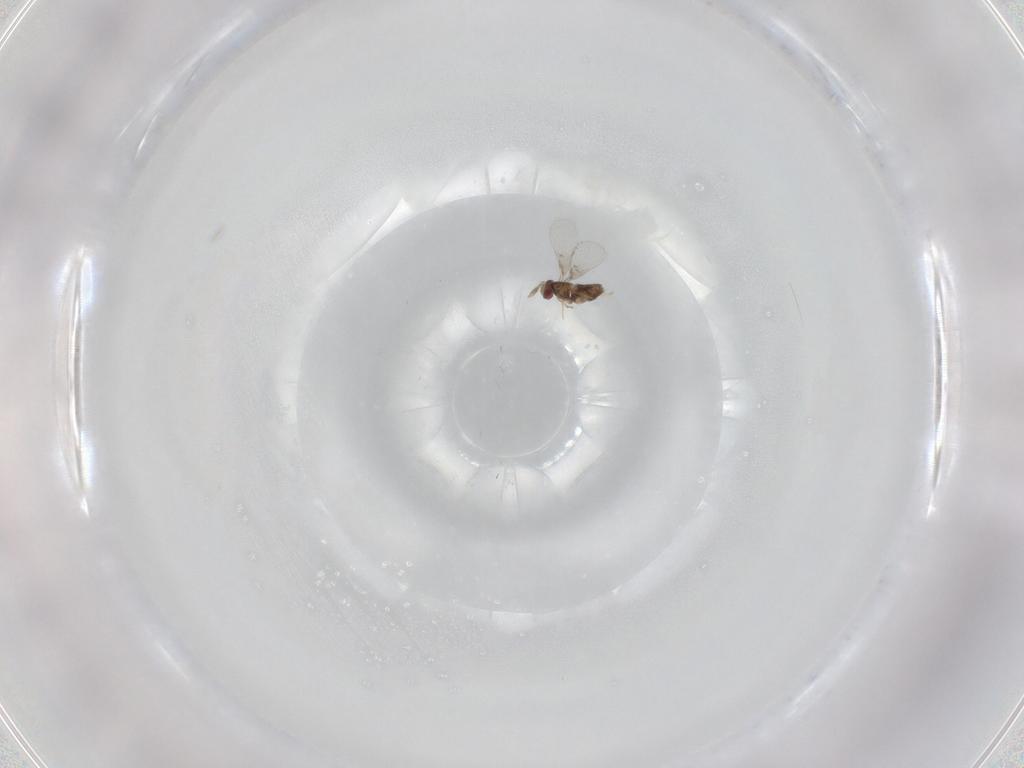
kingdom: Animalia
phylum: Arthropoda
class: Insecta
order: Hymenoptera
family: Trichogrammatidae
